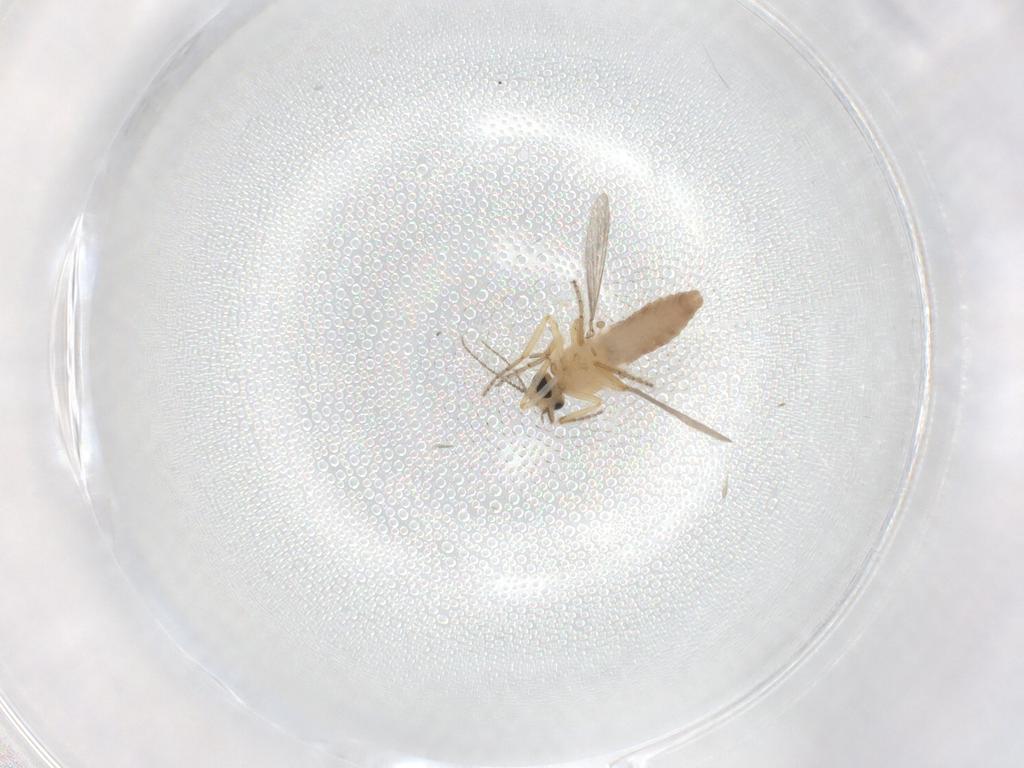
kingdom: Animalia
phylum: Arthropoda
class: Insecta
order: Diptera
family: Ceratopogonidae
